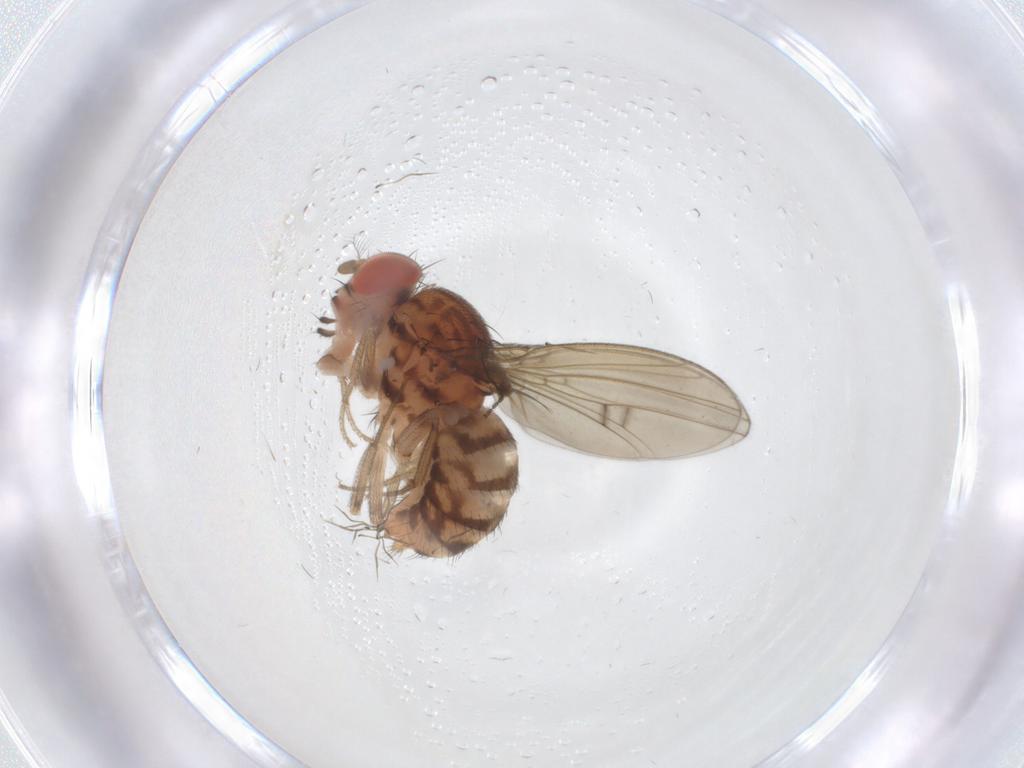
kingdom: Animalia
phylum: Arthropoda
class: Insecta
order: Diptera
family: Drosophilidae
